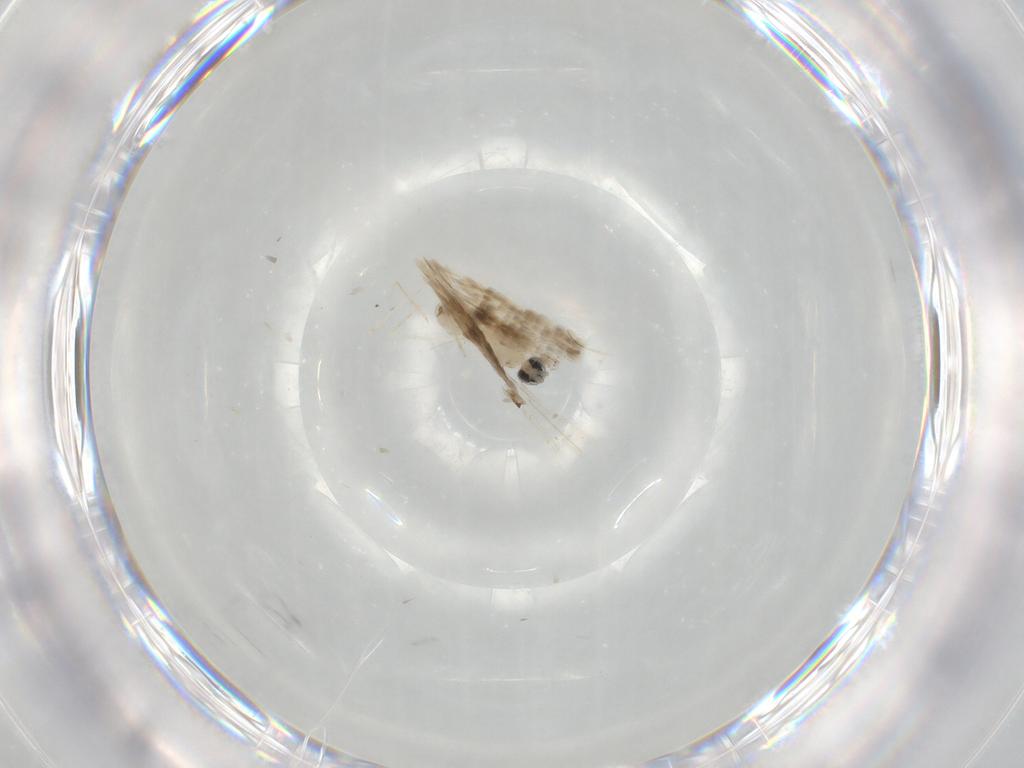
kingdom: Animalia
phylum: Arthropoda
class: Insecta
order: Diptera
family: Cecidomyiidae
